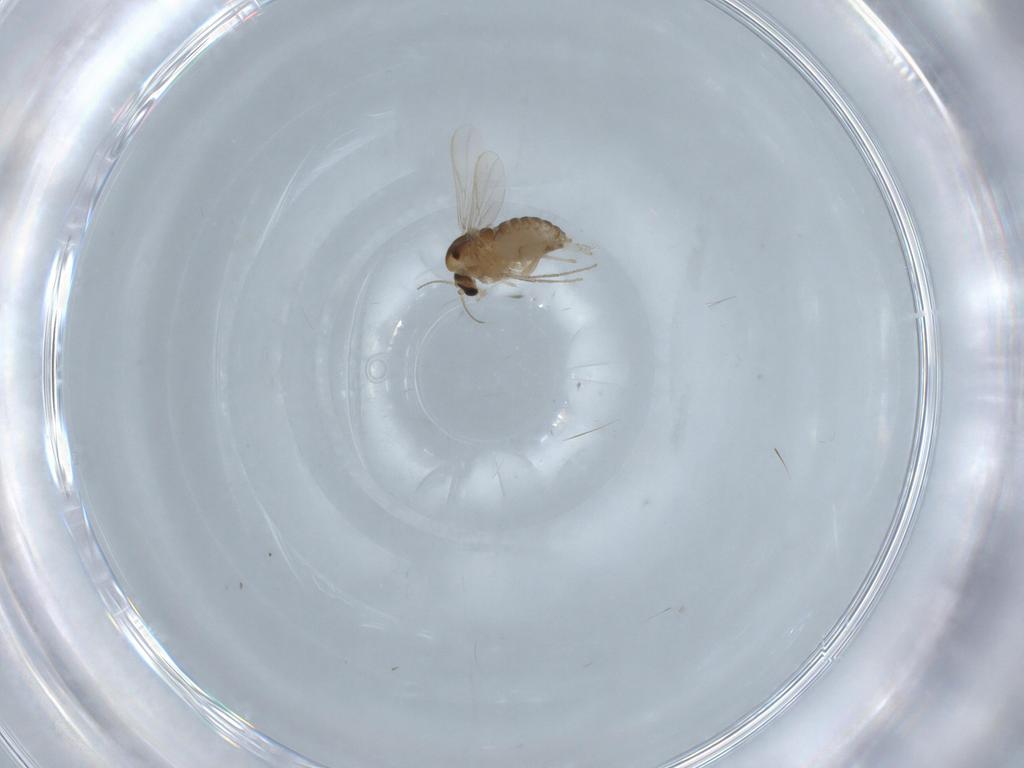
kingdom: Animalia
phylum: Arthropoda
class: Insecta
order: Diptera
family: Chironomidae
